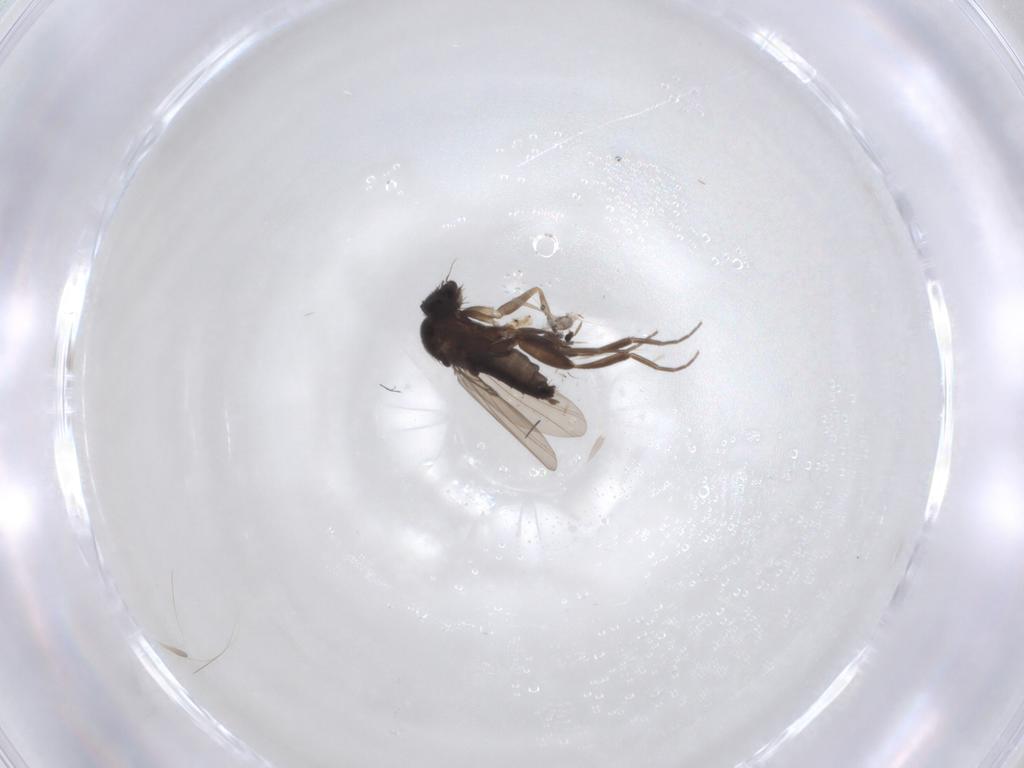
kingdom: Animalia
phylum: Arthropoda
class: Insecta
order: Diptera
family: Phoridae
